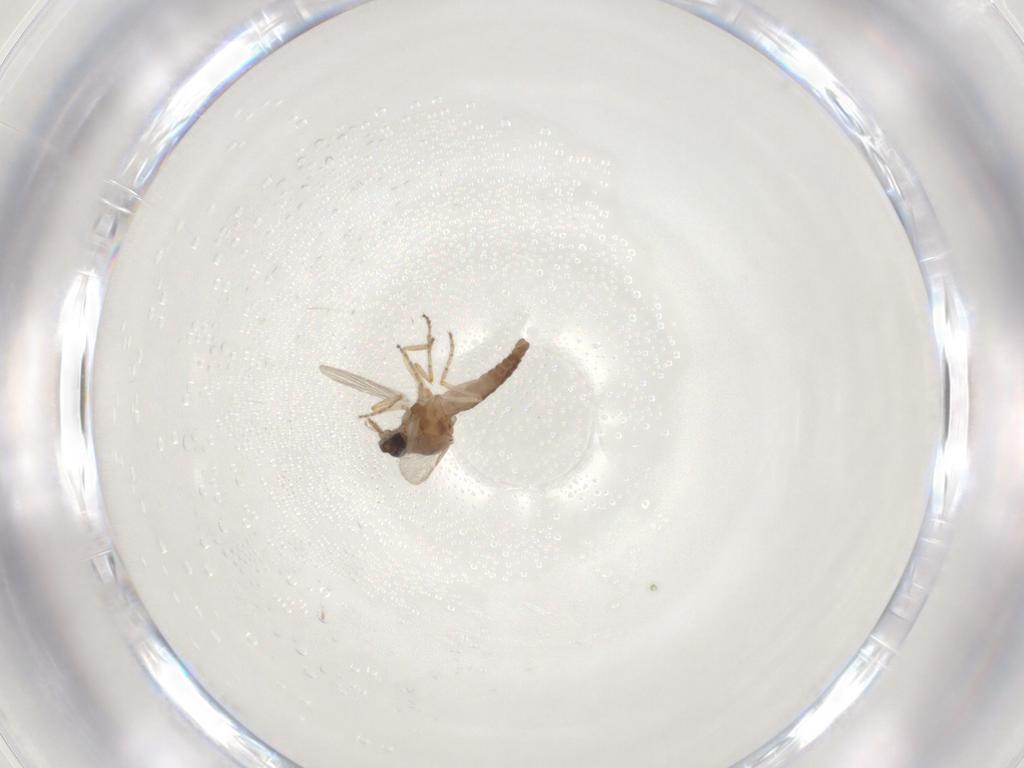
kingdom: Animalia
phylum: Arthropoda
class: Insecta
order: Diptera
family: Ceratopogonidae
